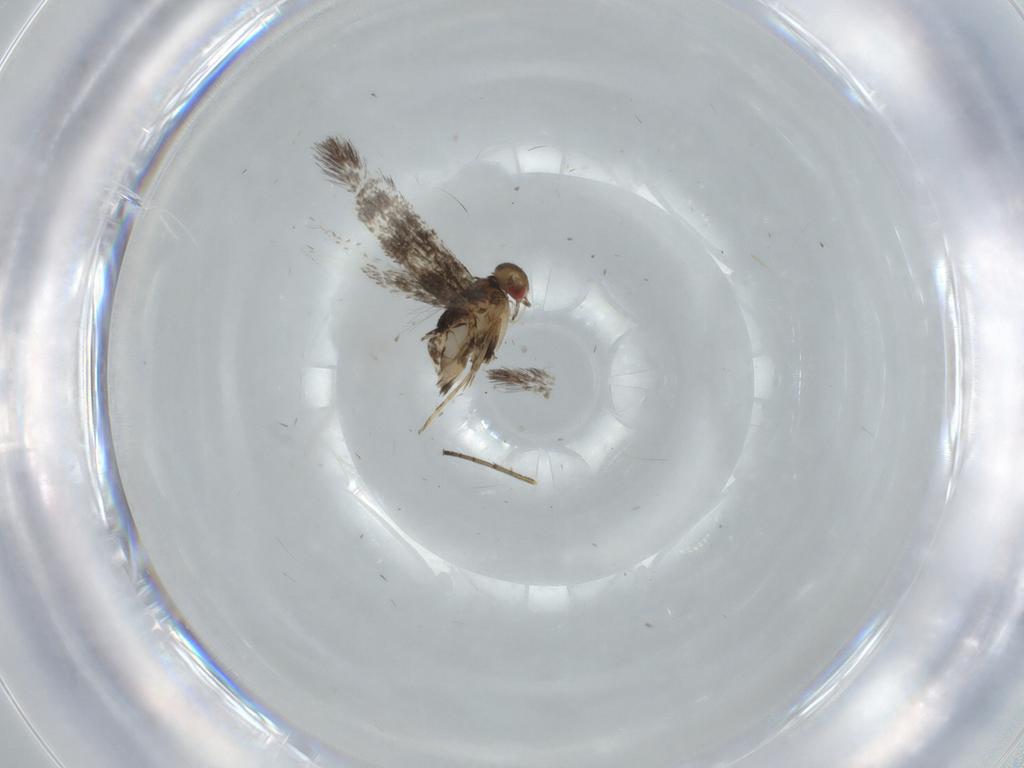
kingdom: Animalia
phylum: Arthropoda
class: Insecta
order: Lepidoptera
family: Gracillariidae
